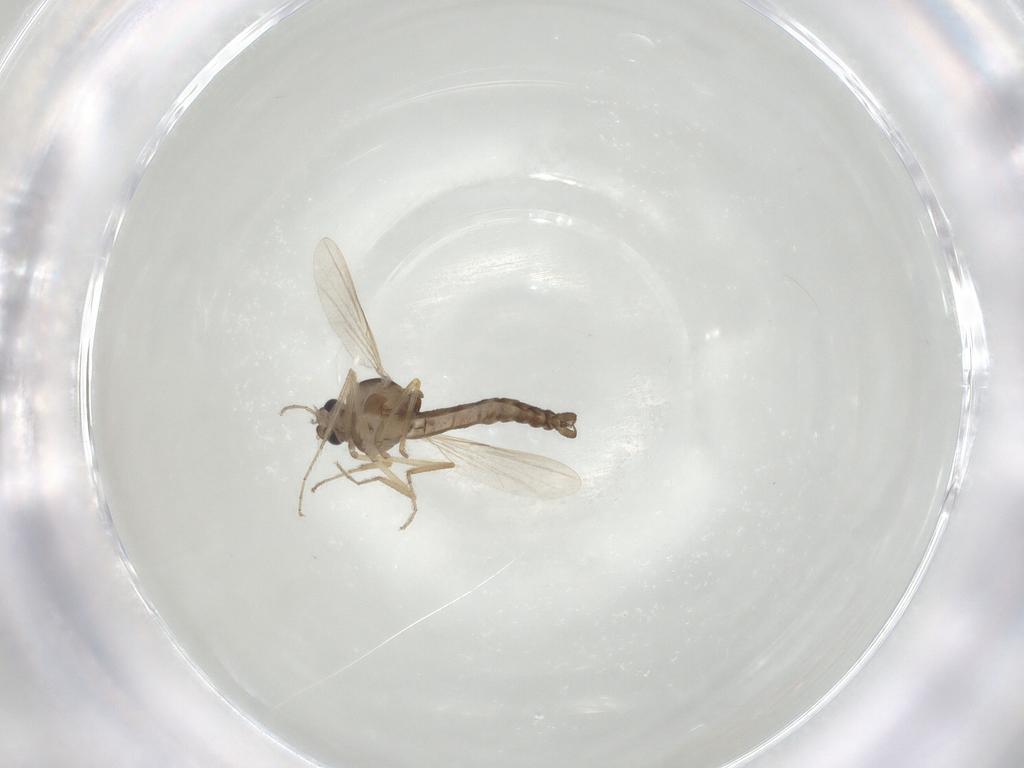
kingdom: Animalia
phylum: Arthropoda
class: Insecta
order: Diptera
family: Ceratopogonidae
